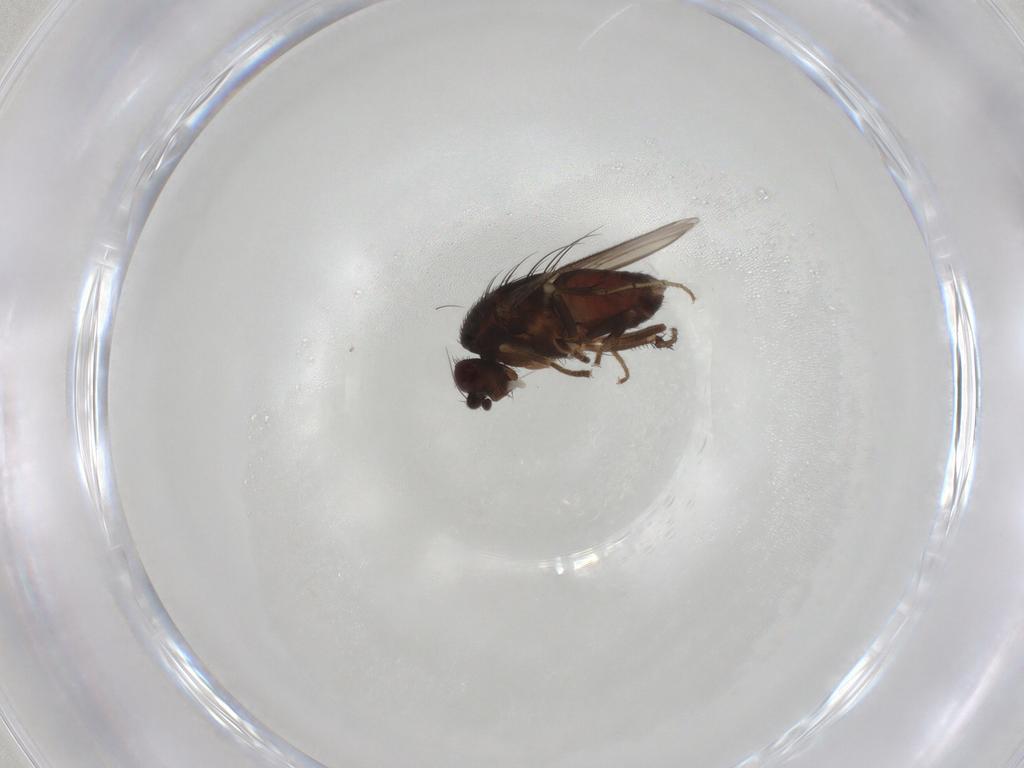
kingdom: Animalia
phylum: Arthropoda
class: Insecta
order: Diptera
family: Sphaeroceridae
